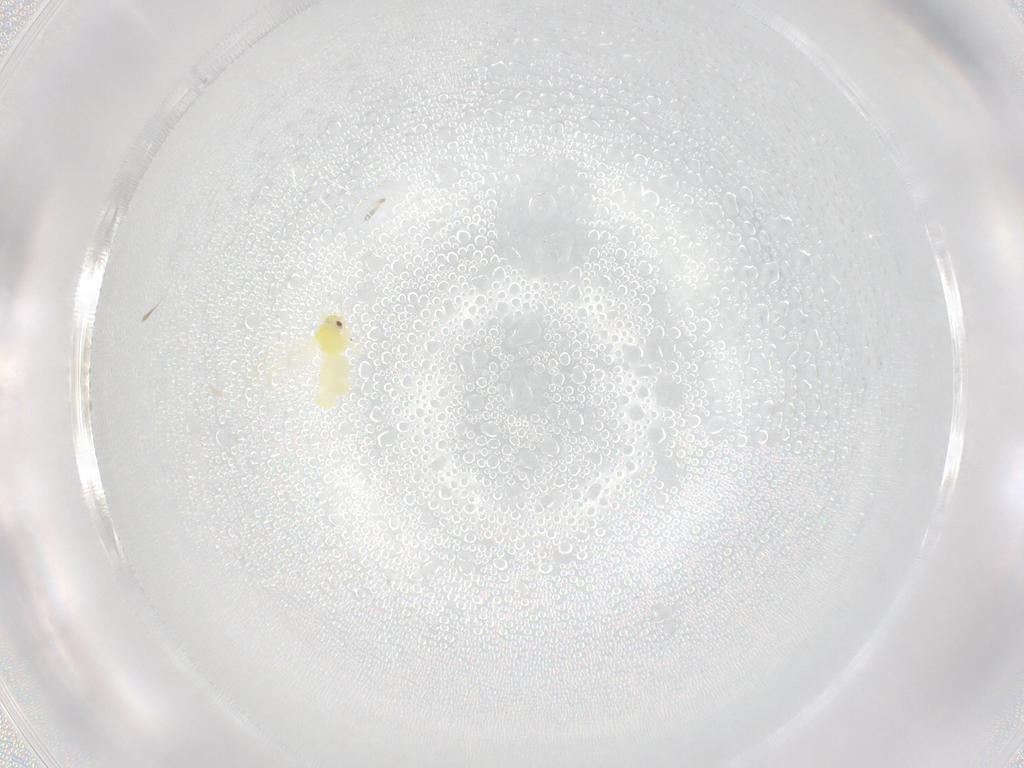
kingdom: Animalia
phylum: Arthropoda
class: Insecta
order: Hemiptera
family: Aleyrodidae
